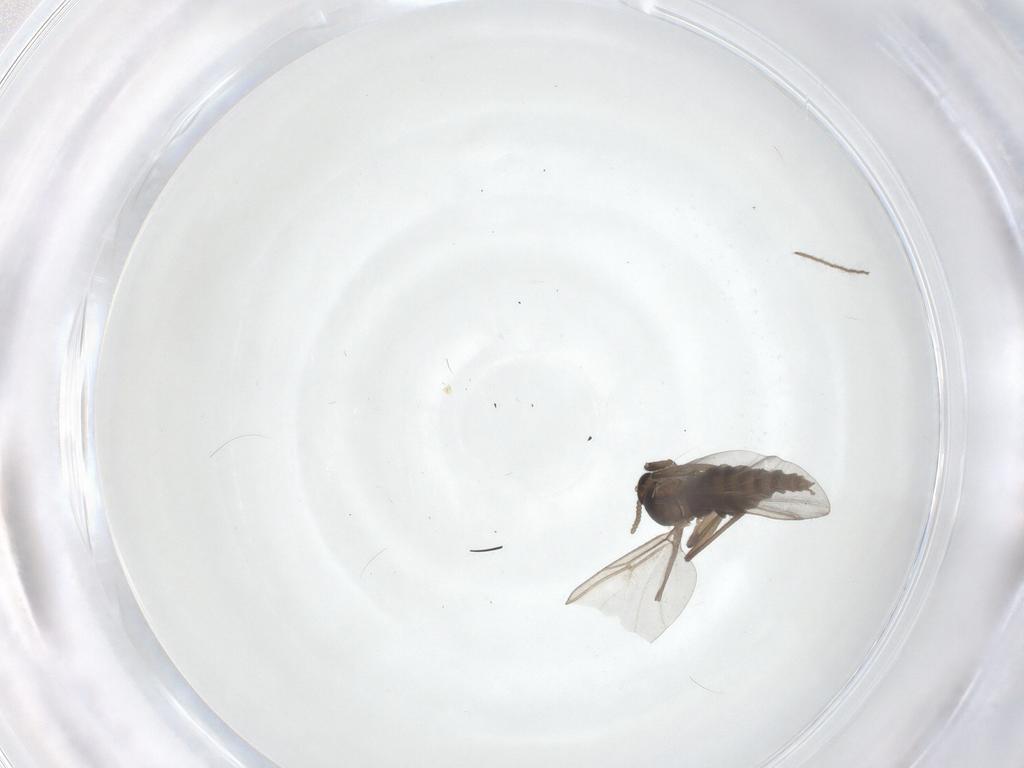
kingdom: Animalia
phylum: Arthropoda
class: Insecta
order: Diptera
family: Chironomidae
